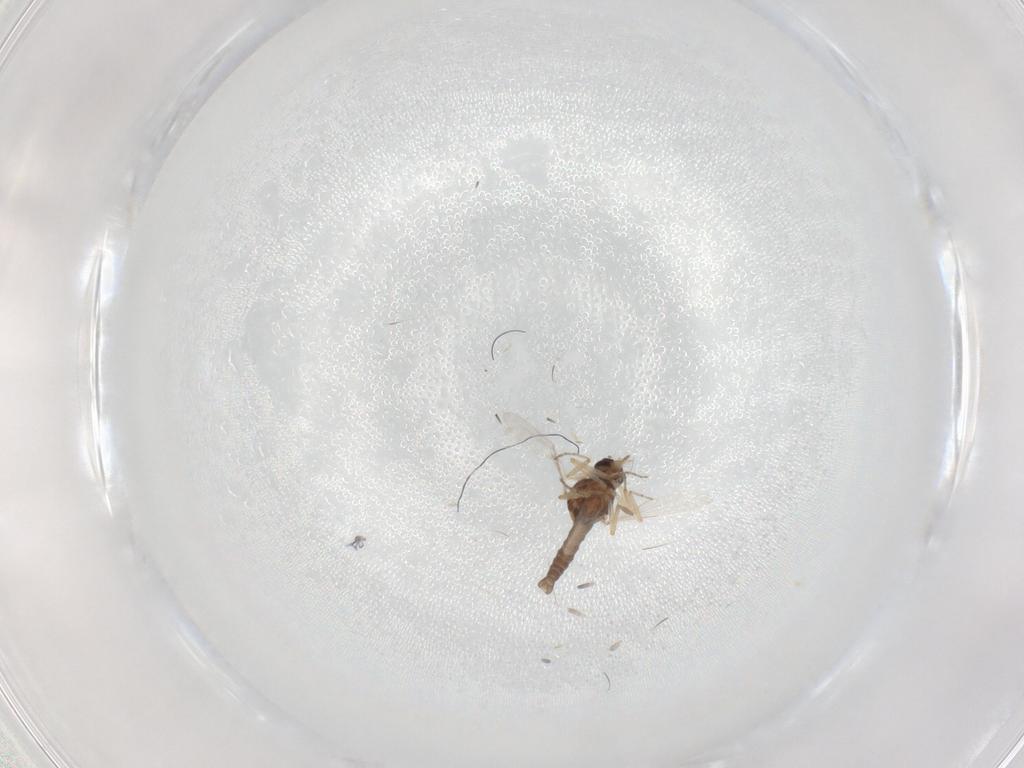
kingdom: Animalia
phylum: Arthropoda
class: Insecta
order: Diptera
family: Ceratopogonidae
